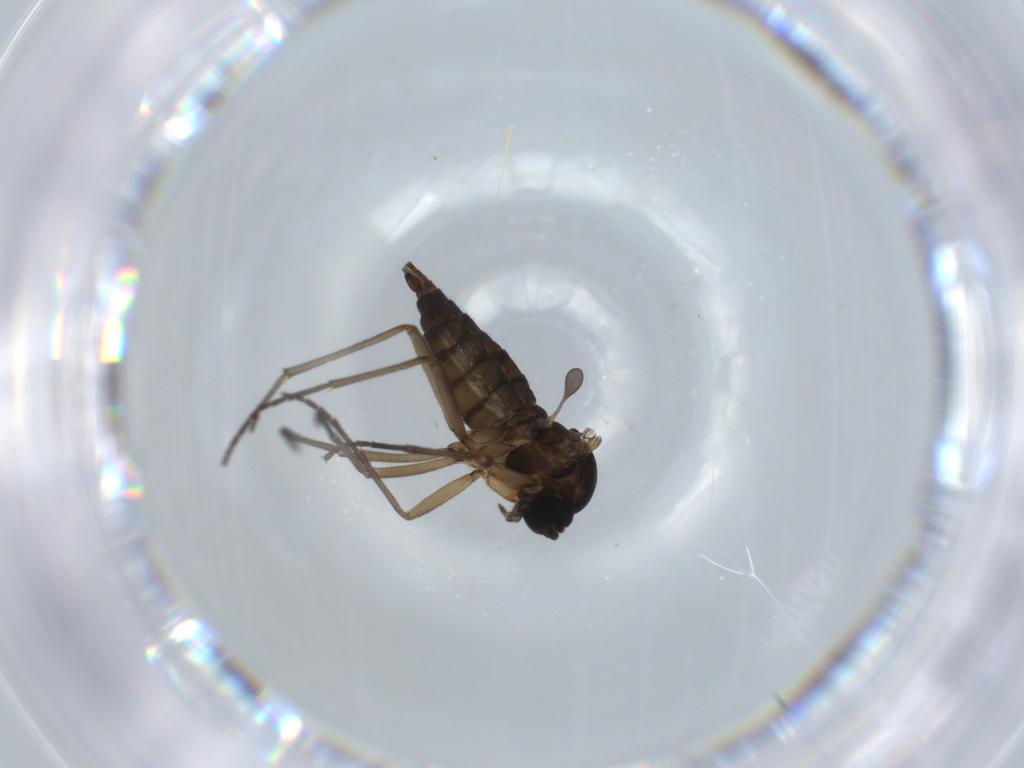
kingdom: Animalia
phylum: Arthropoda
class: Insecta
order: Diptera
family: Sciaridae
